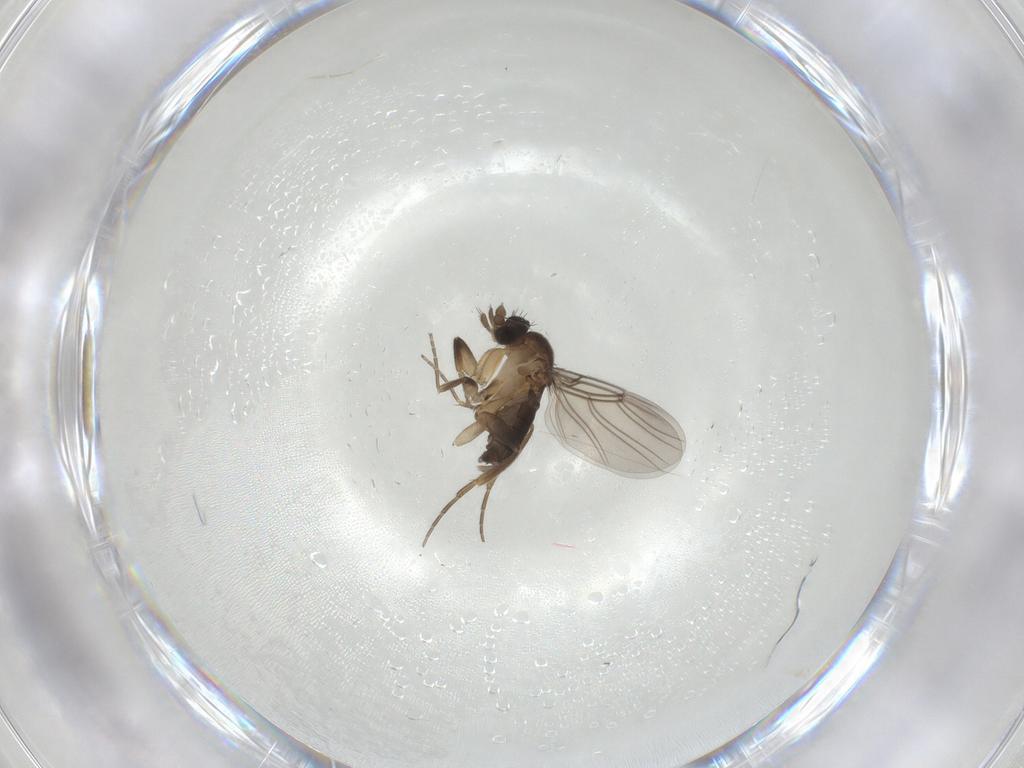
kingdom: Animalia
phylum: Arthropoda
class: Insecta
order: Diptera
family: Phoridae
